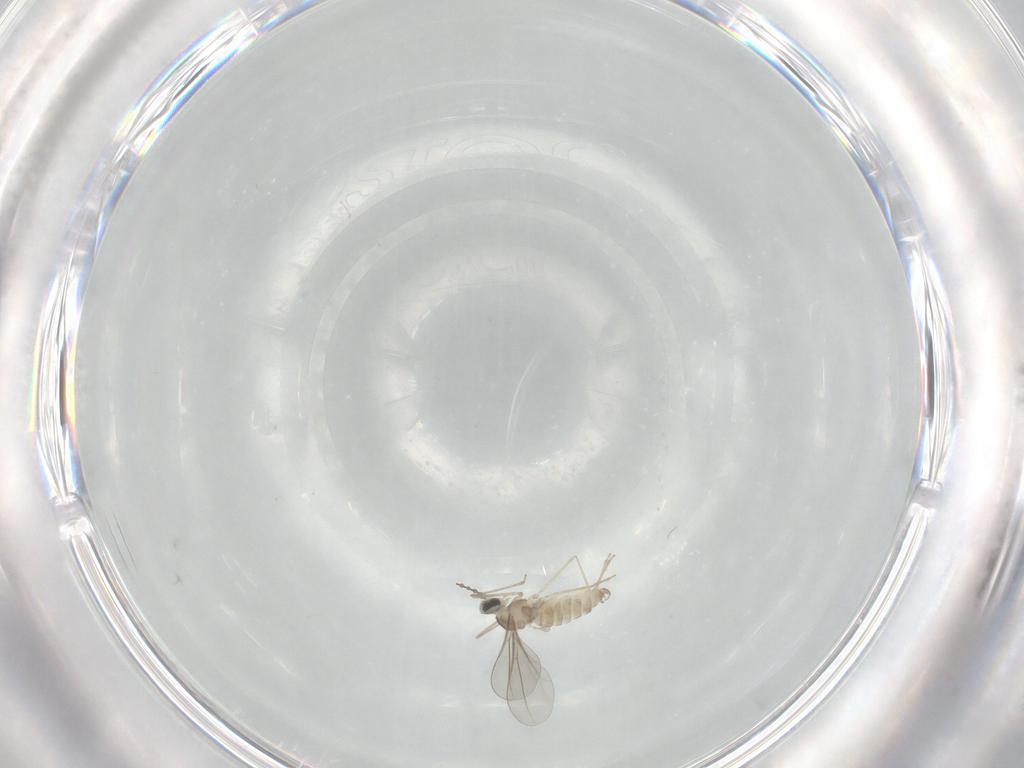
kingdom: Animalia
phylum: Arthropoda
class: Insecta
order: Diptera
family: Cecidomyiidae
